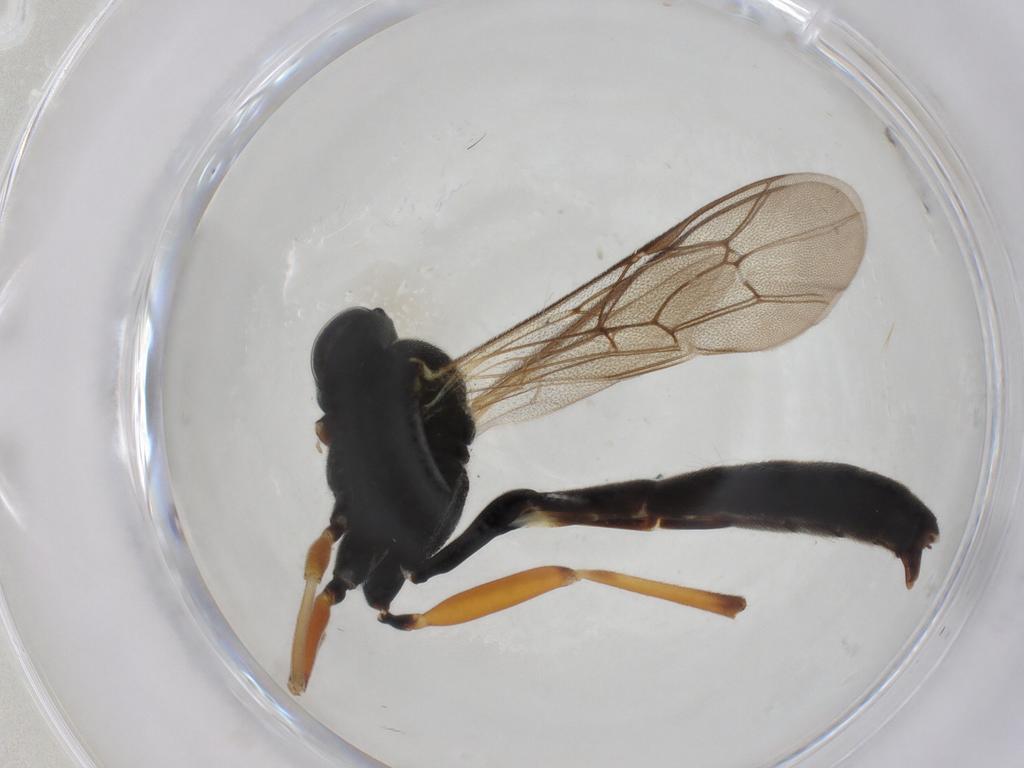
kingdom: Animalia
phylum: Arthropoda
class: Insecta
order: Hymenoptera
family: Ichneumonidae
